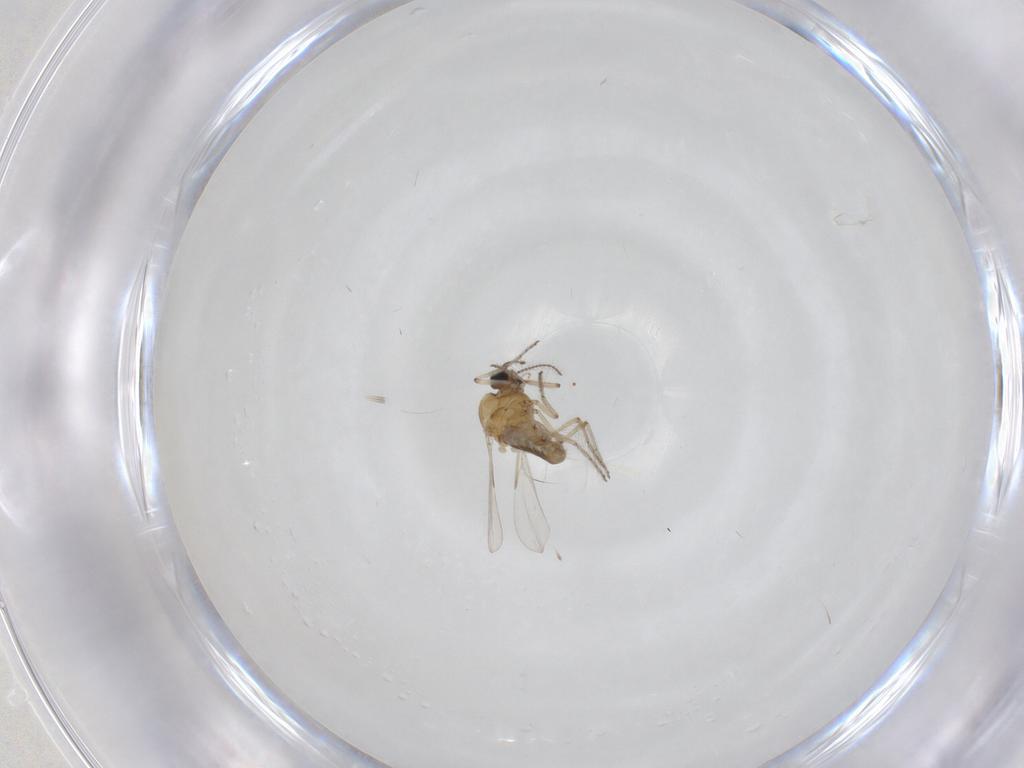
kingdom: Animalia
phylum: Arthropoda
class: Insecta
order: Diptera
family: Ceratopogonidae
